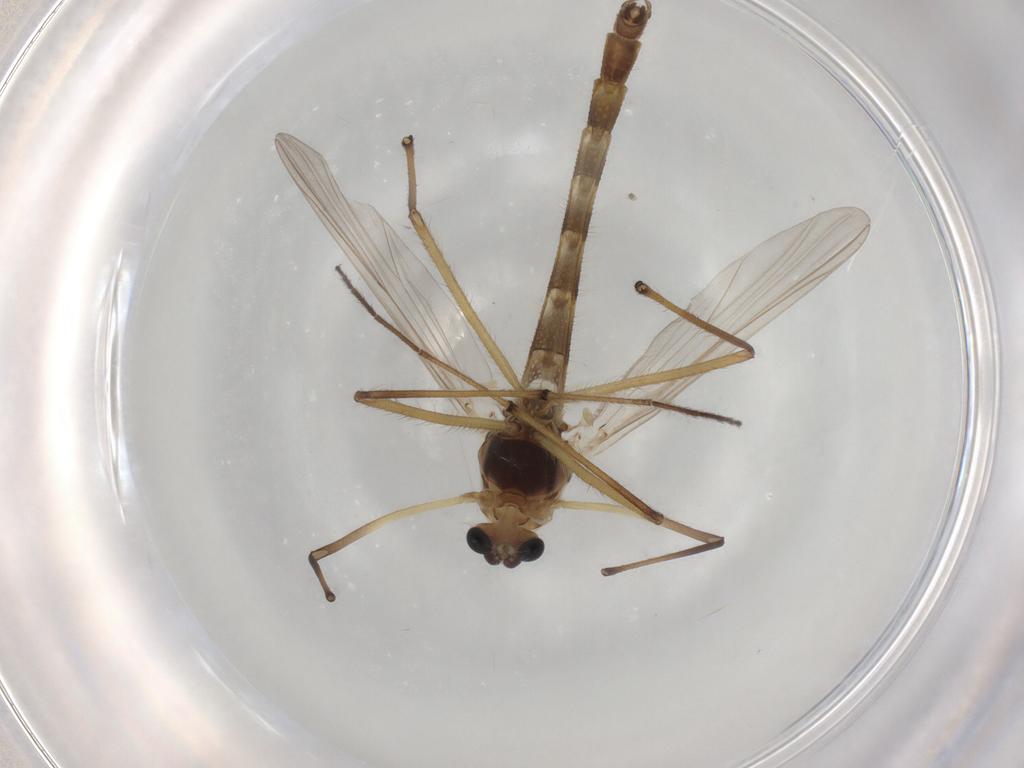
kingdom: Animalia
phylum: Arthropoda
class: Insecta
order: Diptera
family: Chironomidae
